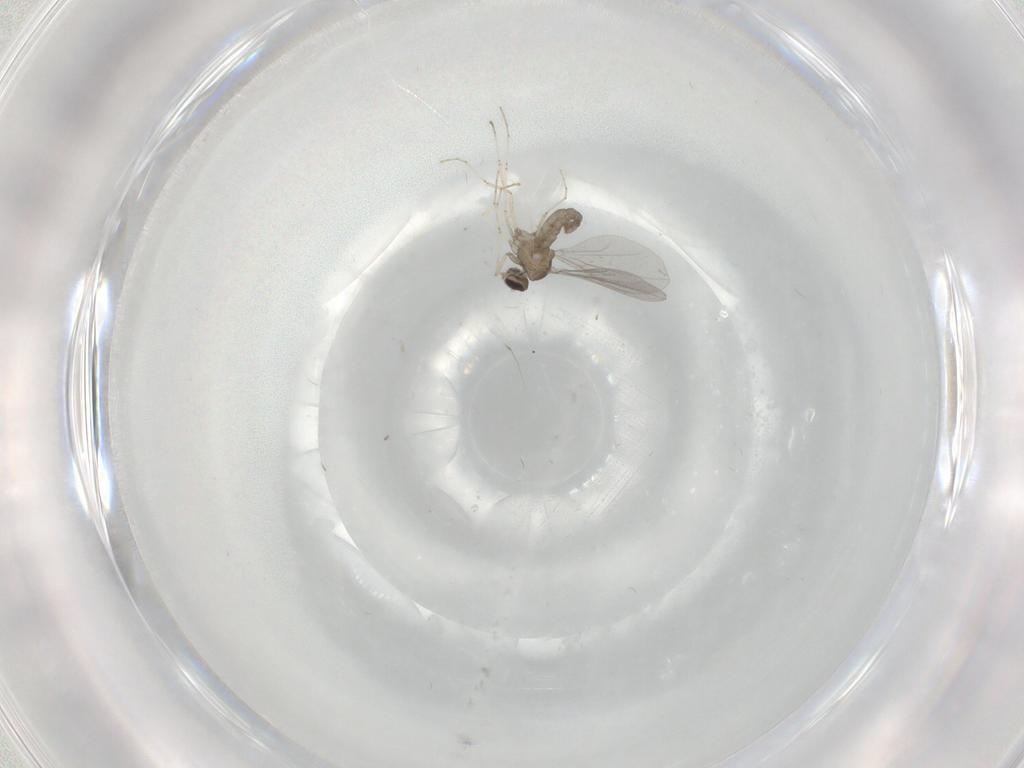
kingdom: Animalia
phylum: Arthropoda
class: Insecta
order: Diptera
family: Cecidomyiidae
